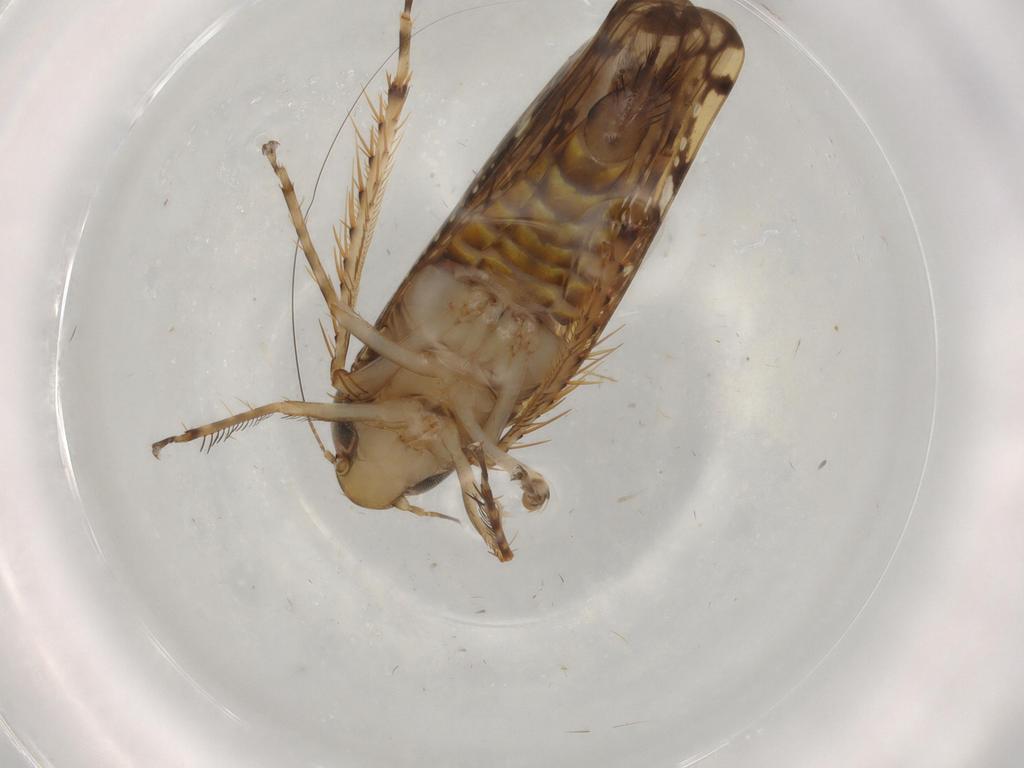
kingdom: Animalia
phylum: Arthropoda
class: Insecta
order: Hemiptera
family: Cicadellidae
